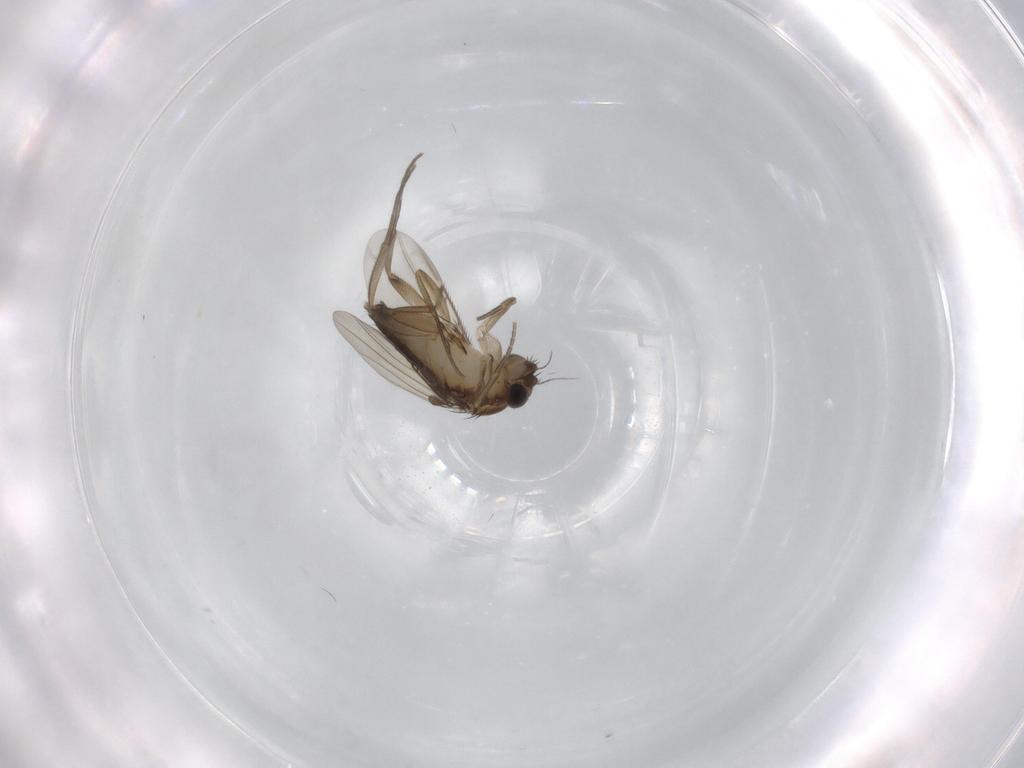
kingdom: Animalia
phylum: Arthropoda
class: Insecta
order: Diptera
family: Phoridae
